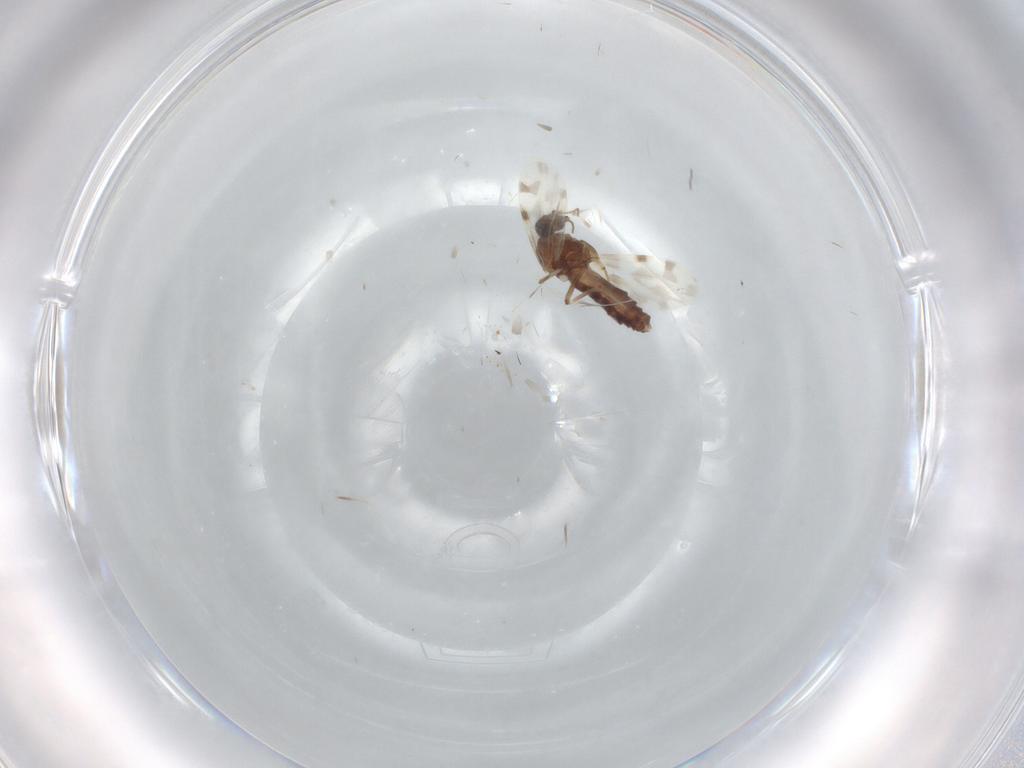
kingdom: Animalia
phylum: Arthropoda
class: Insecta
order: Diptera
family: Ceratopogonidae
